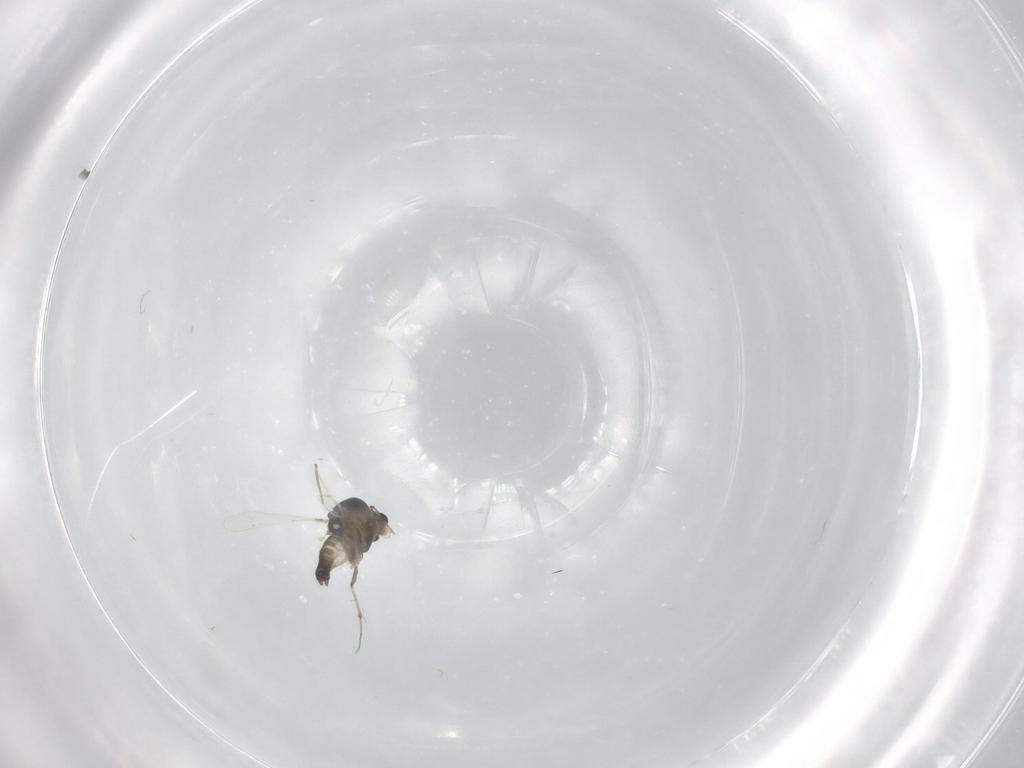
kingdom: Animalia
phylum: Arthropoda
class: Insecta
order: Diptera
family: Chironomidae
